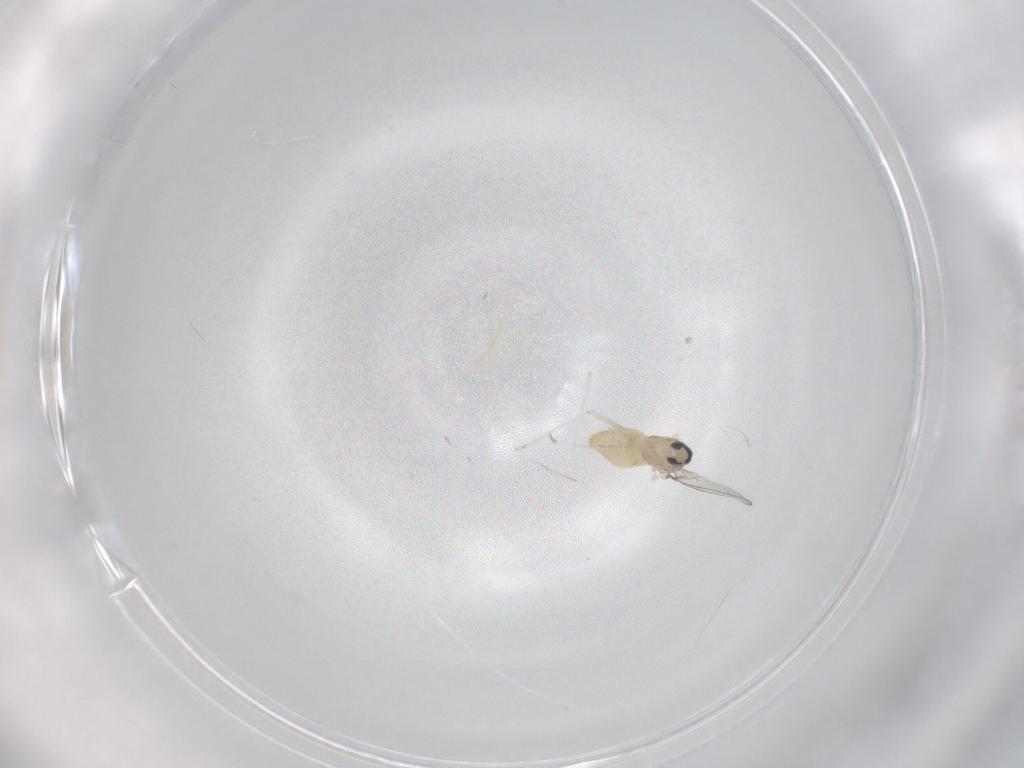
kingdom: Animalia
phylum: Arthropoda
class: Insecta
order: Diptera
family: Cecidomyiidae
